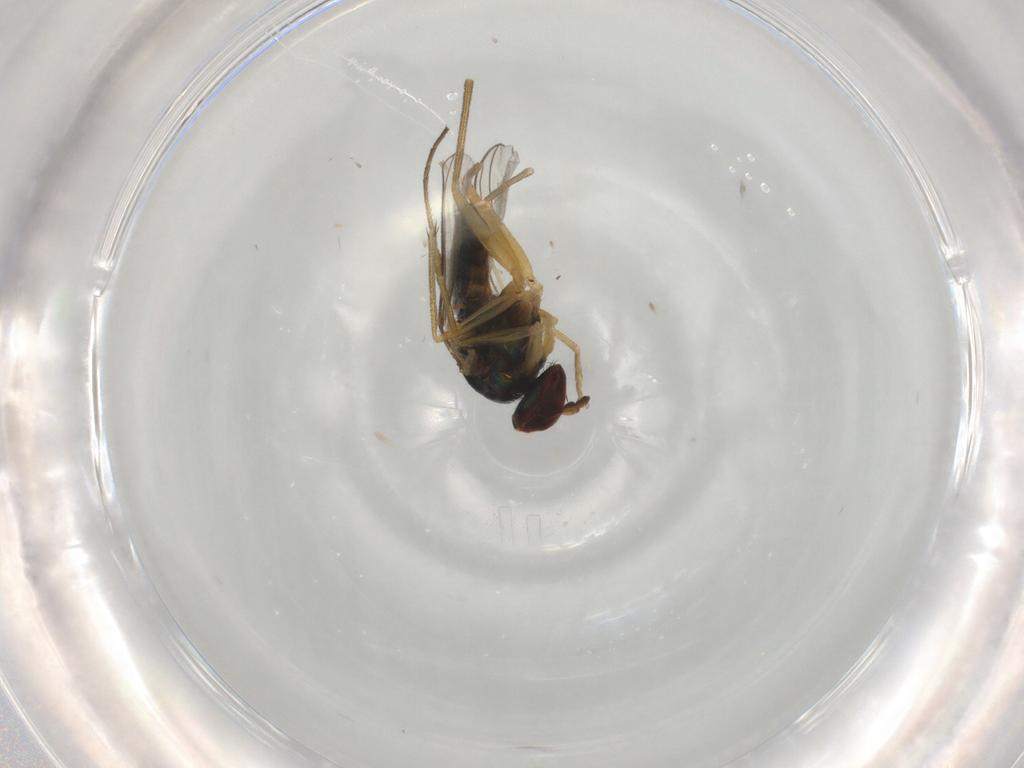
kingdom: Animalia
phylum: Arthropoda
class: Insecta
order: Diptera
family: Dolichopodidae
